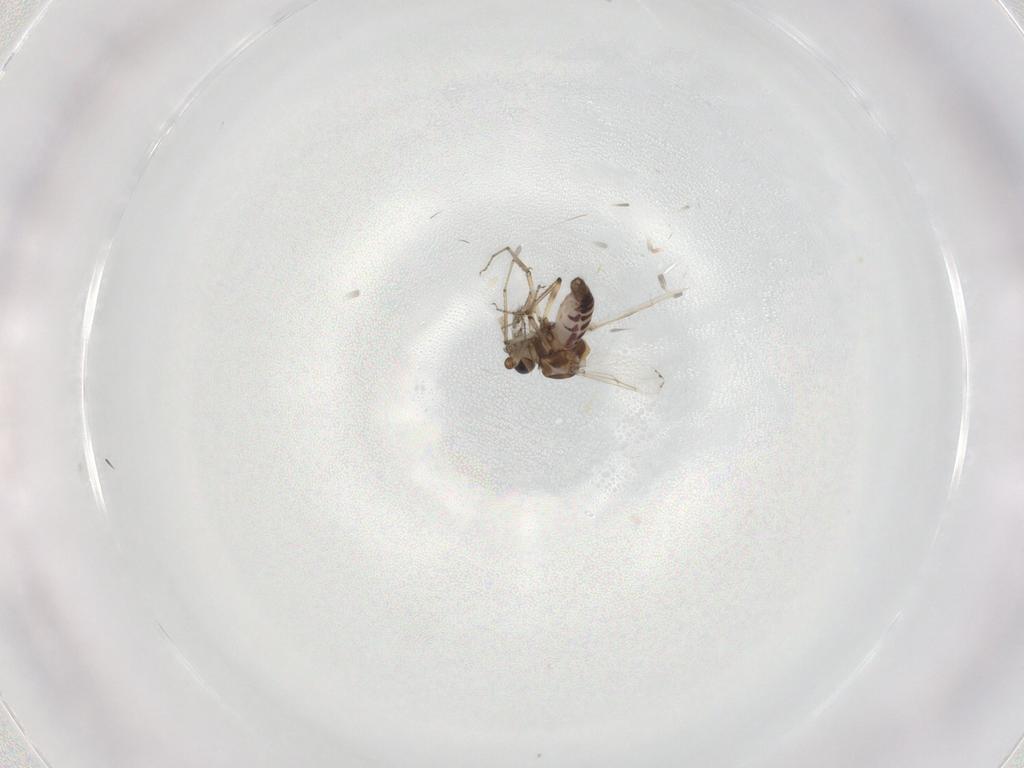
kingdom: Animalia
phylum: Arthropoda
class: Insecta
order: Diptera
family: Ceratopogonidae
